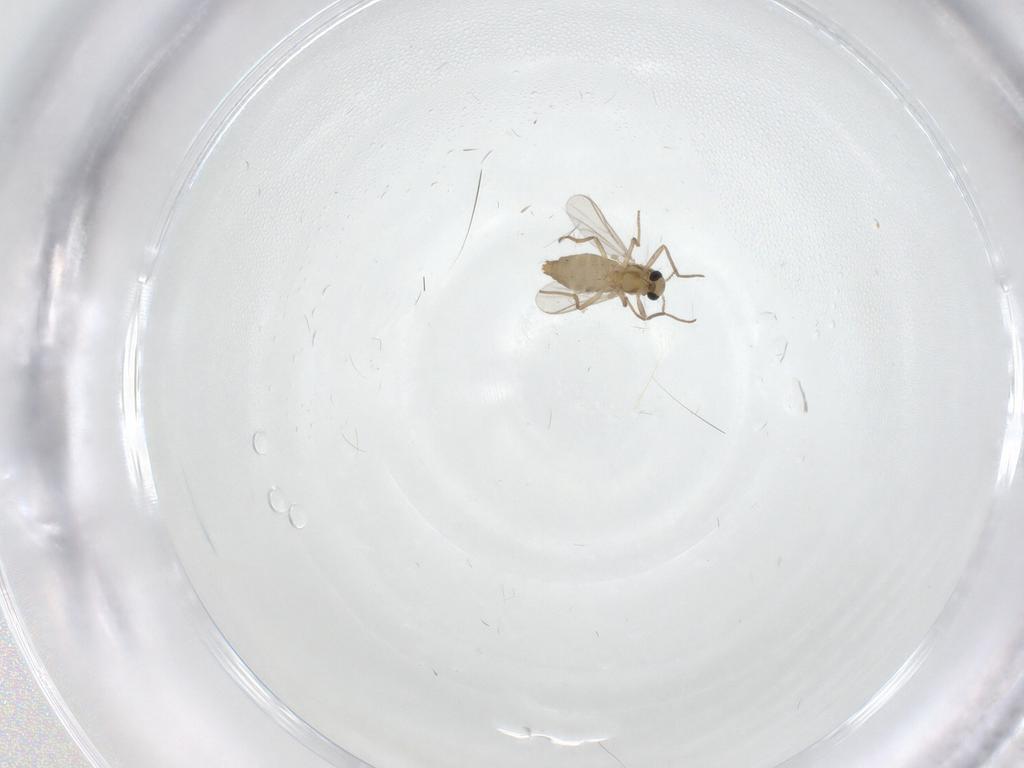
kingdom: Animalia
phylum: Arthropoda
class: Insecta
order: Diptera
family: Chironomidae
